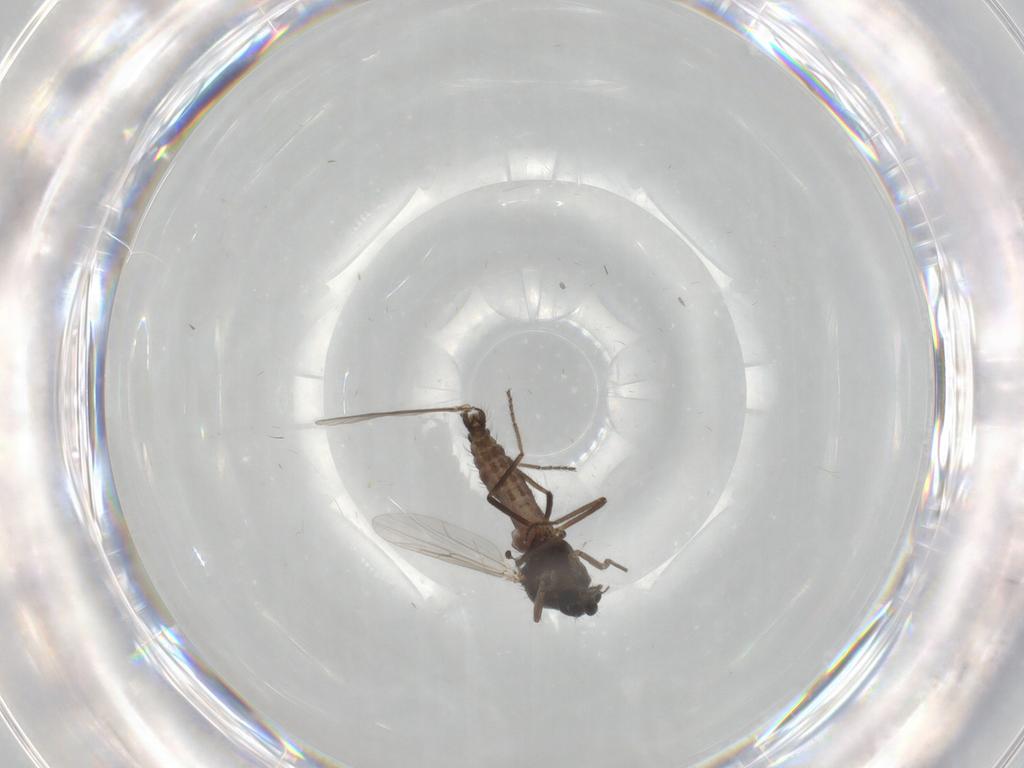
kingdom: Animalia
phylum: Arthropoda
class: Insecta
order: Diptera
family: Ceratopogonidae
